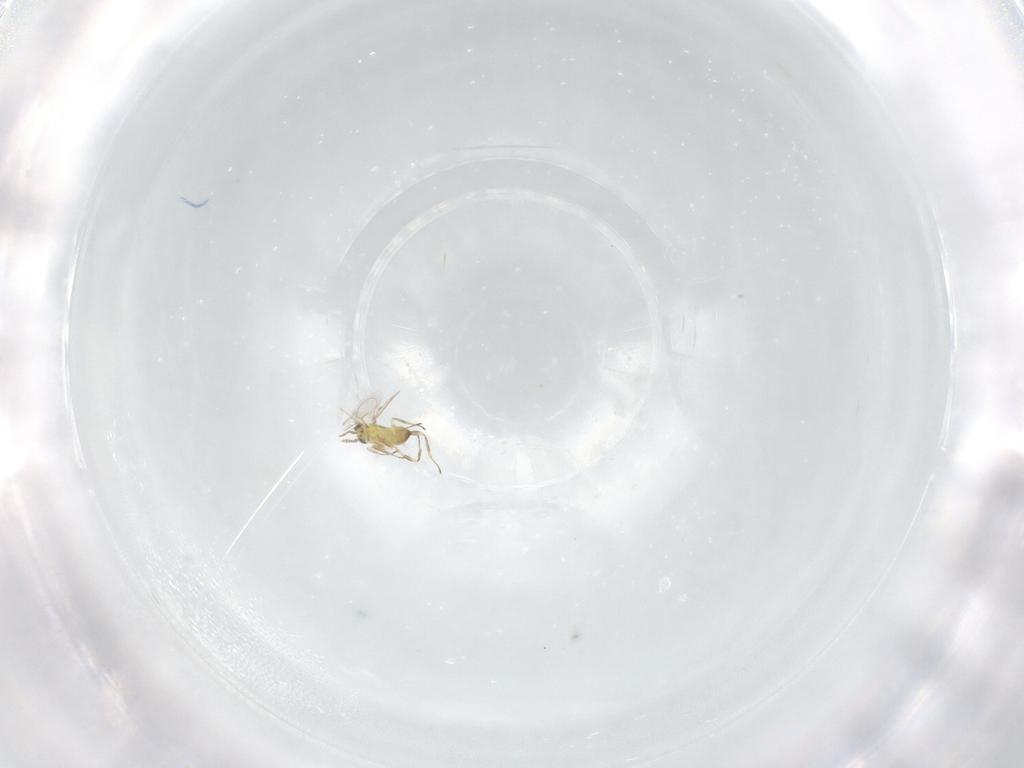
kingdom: Animalia
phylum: Arthropoda
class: Insecta
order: Hymenoptera
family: Trichogrammatidae
